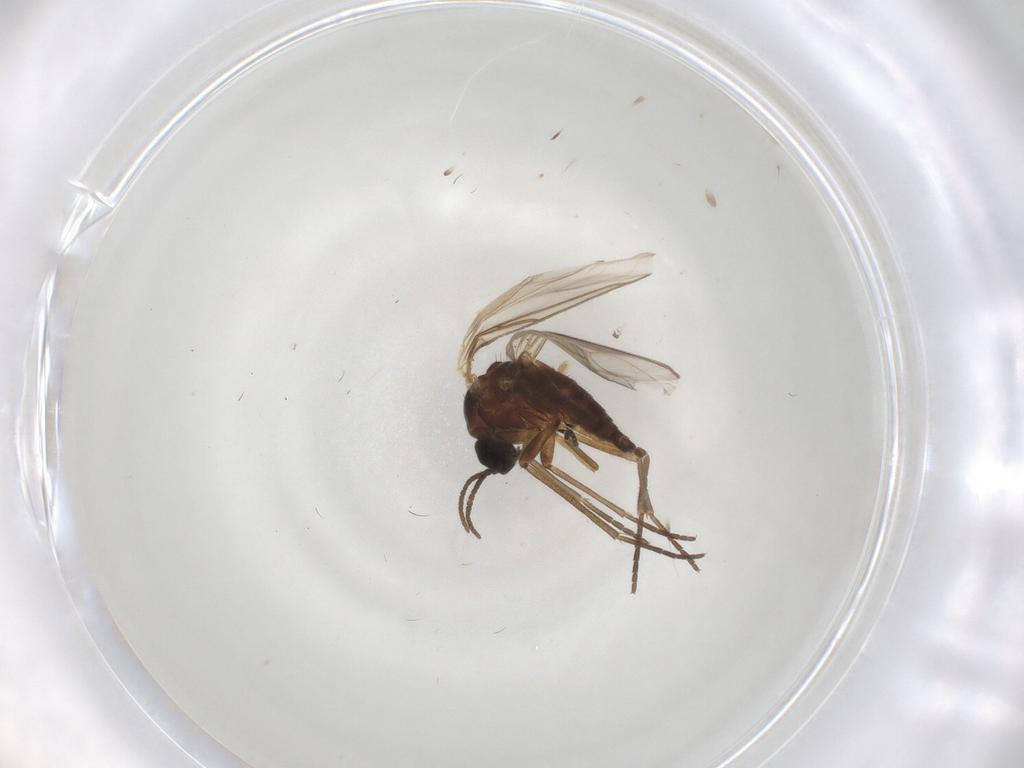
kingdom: Animalia
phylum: Arthropoda
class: Insecta
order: Diptera
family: Sciaridae
